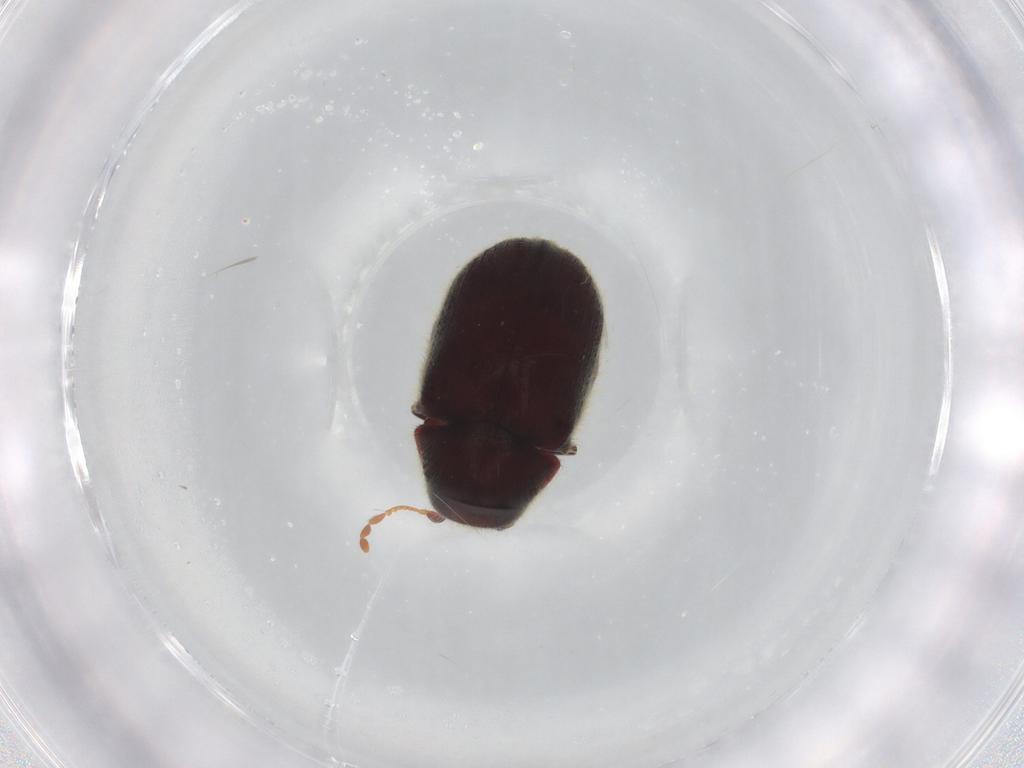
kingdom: Animalia
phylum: Arthropoda
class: Insecta
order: Coleoptera
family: Ptinidae
